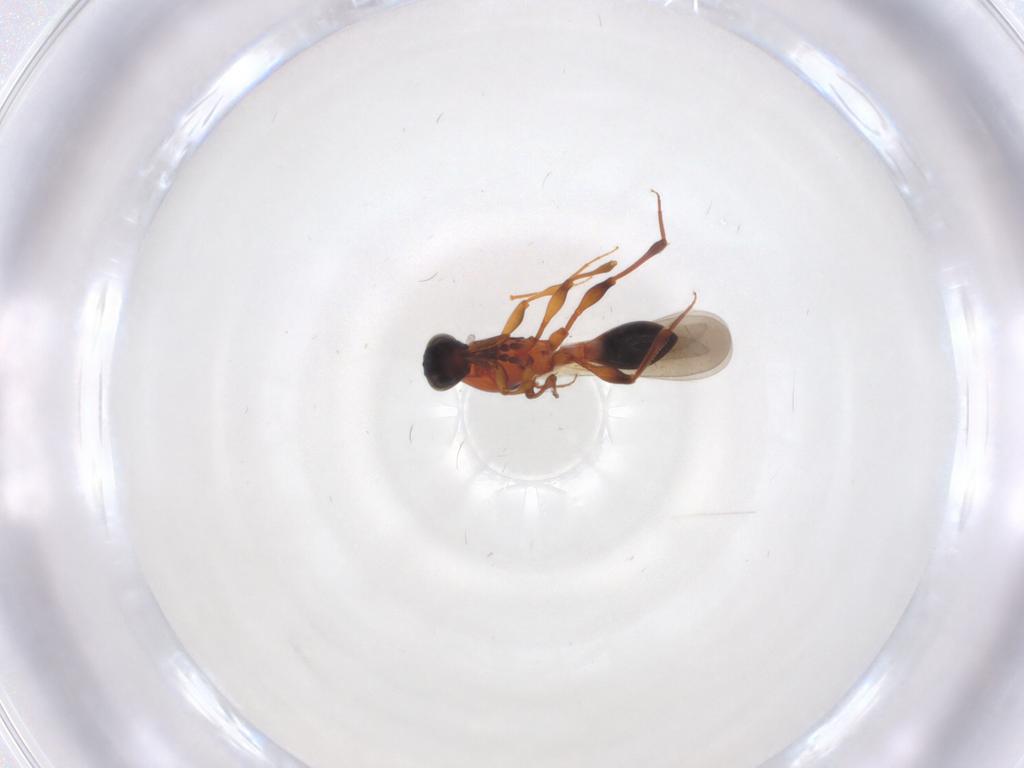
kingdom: Animalia
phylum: Arthropoda
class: Insecta
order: Hymenoptera
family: Platygastridae
